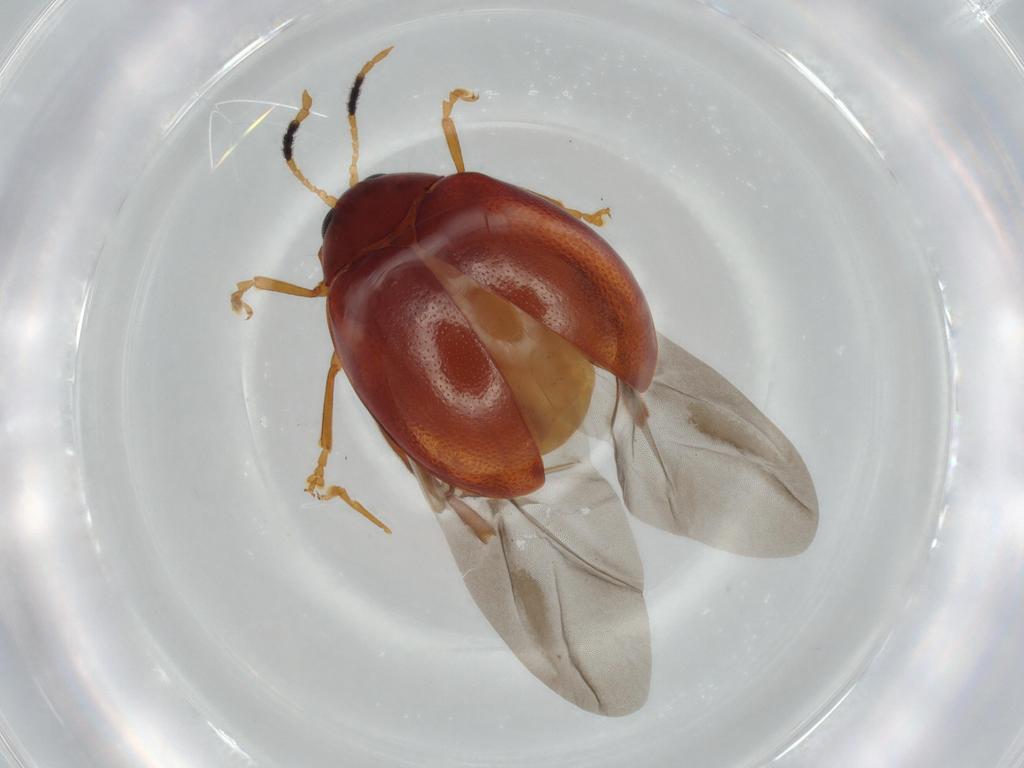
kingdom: Animalia
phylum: Arthropoda
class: Insecta
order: Coleoptera
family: Chrysomelidae
